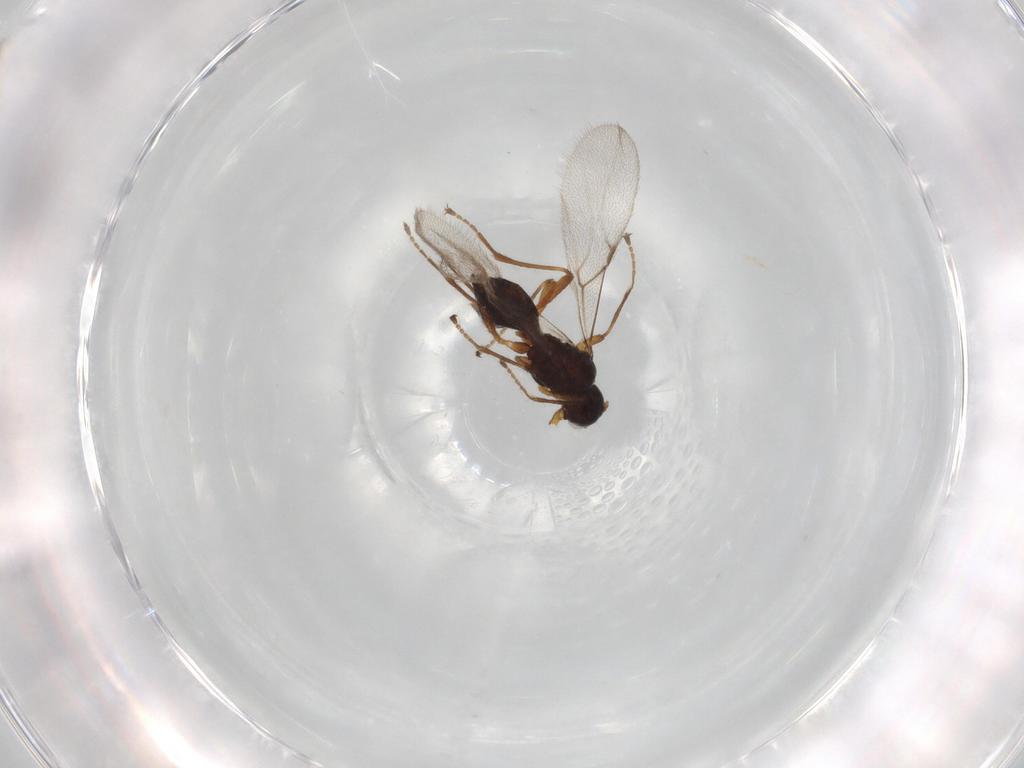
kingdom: Animalia
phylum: Arthropoda
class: Insecta
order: Hymenoptera
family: Braconidae
